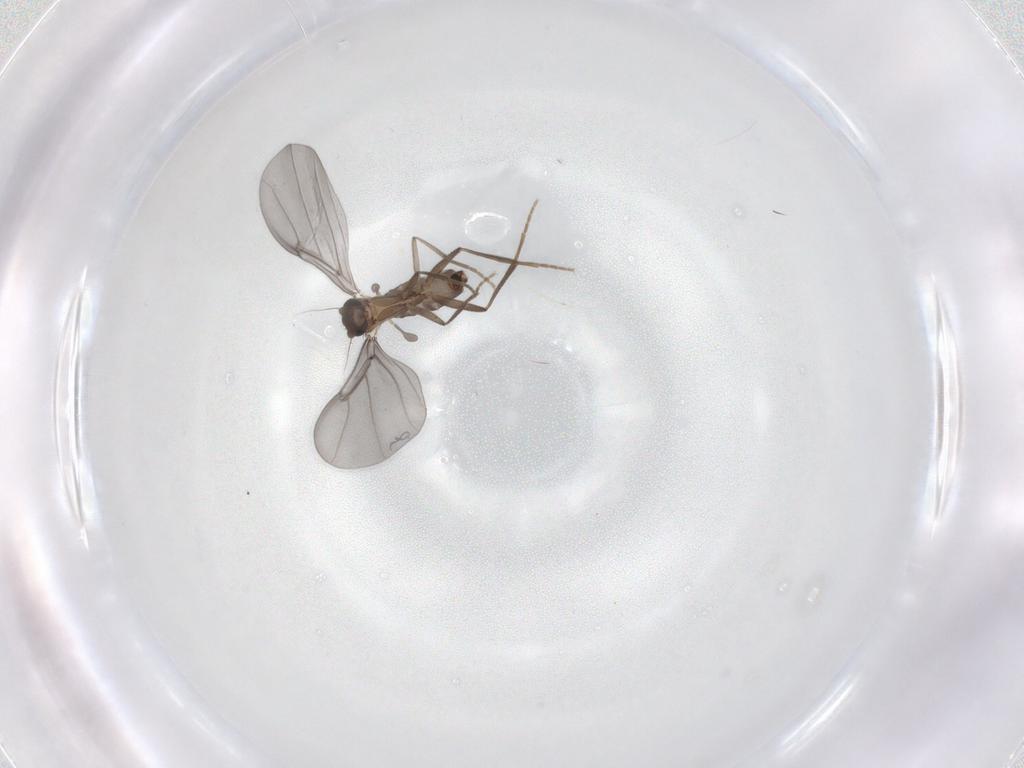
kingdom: Animalia
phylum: Arthropoda
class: Insecta
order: Diptera
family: Phoridae
